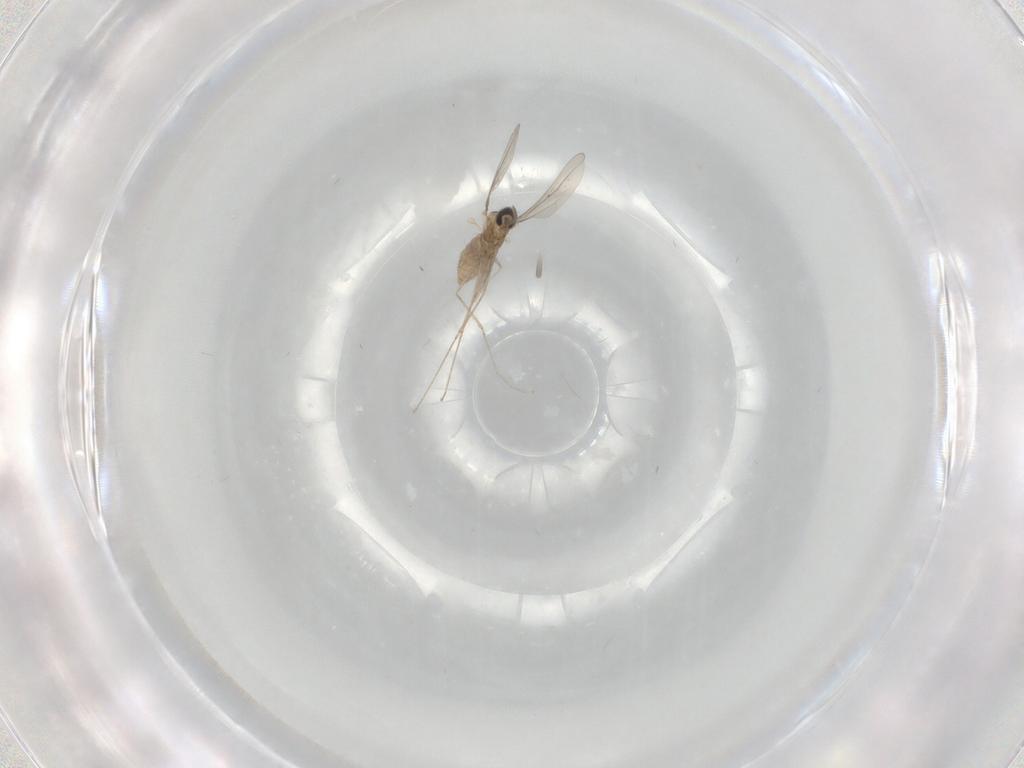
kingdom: Animalia
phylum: Arthropoda
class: Insecta
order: Diptera
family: Cecidomyiidae
